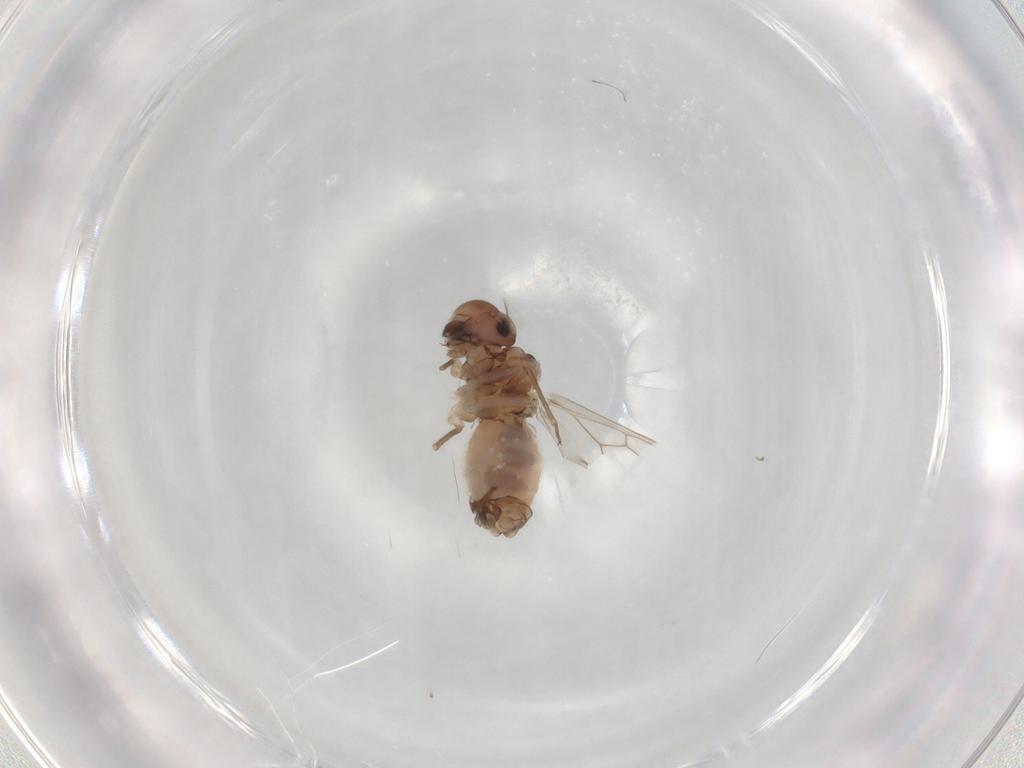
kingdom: Animalia
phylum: Arthropoda
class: Insecta
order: Psocodea
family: Peripsocidae
